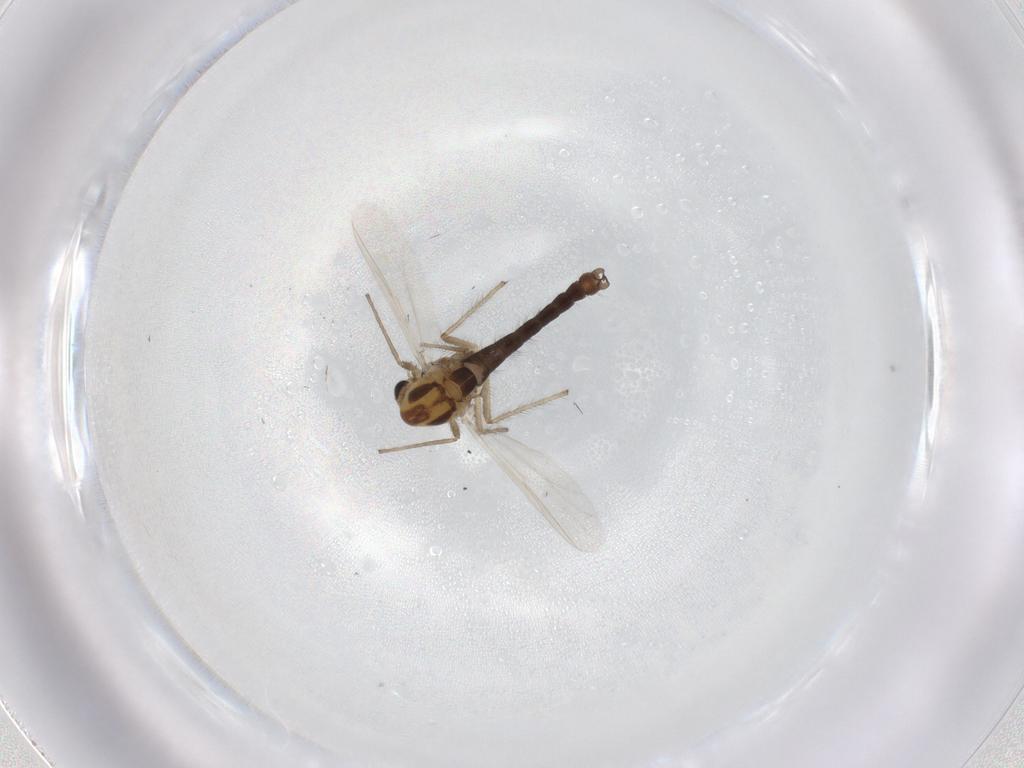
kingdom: Animalia
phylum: Arthropoda
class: Insecta
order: Diptera
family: Chironomidae
